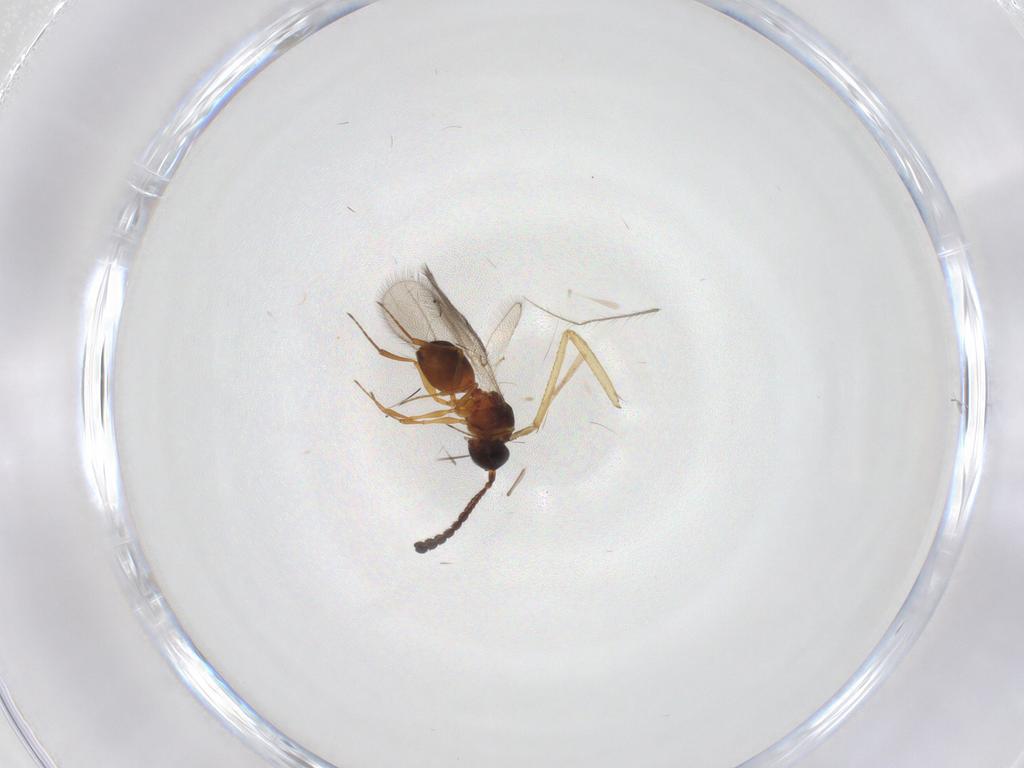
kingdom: Animalia
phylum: Arthropoda
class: Insecta
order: Hymenoptera
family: Figitidae
